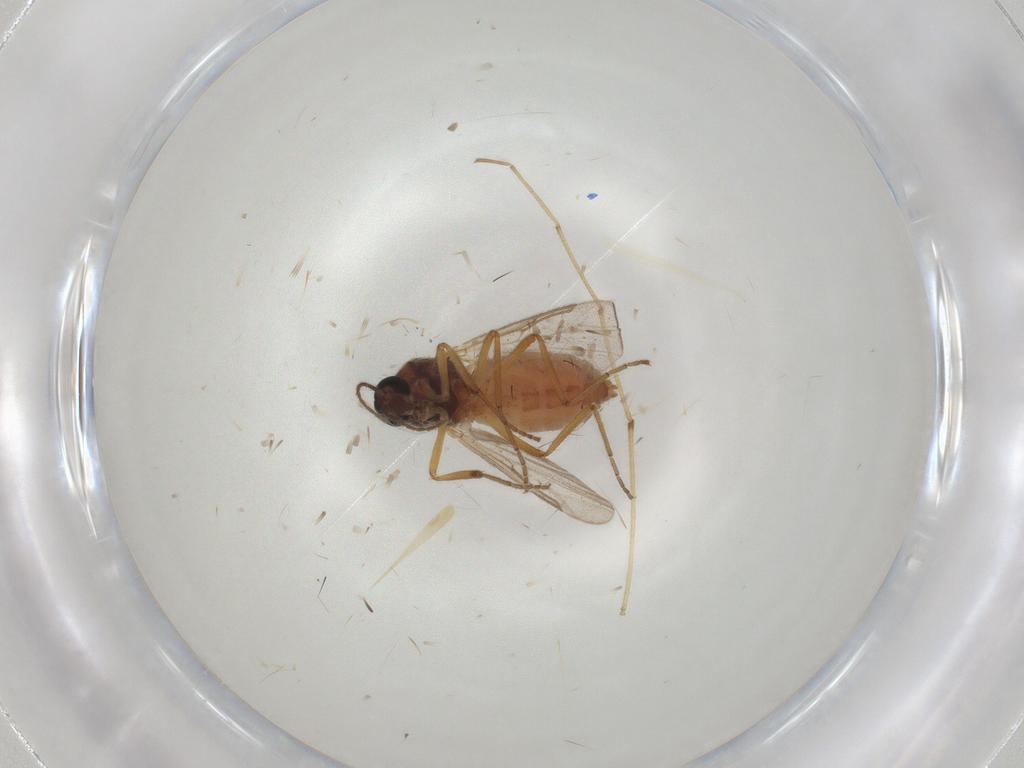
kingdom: Animalia
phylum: Arthropoda
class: Insecta
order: Diptera
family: Ceratopogonidae
